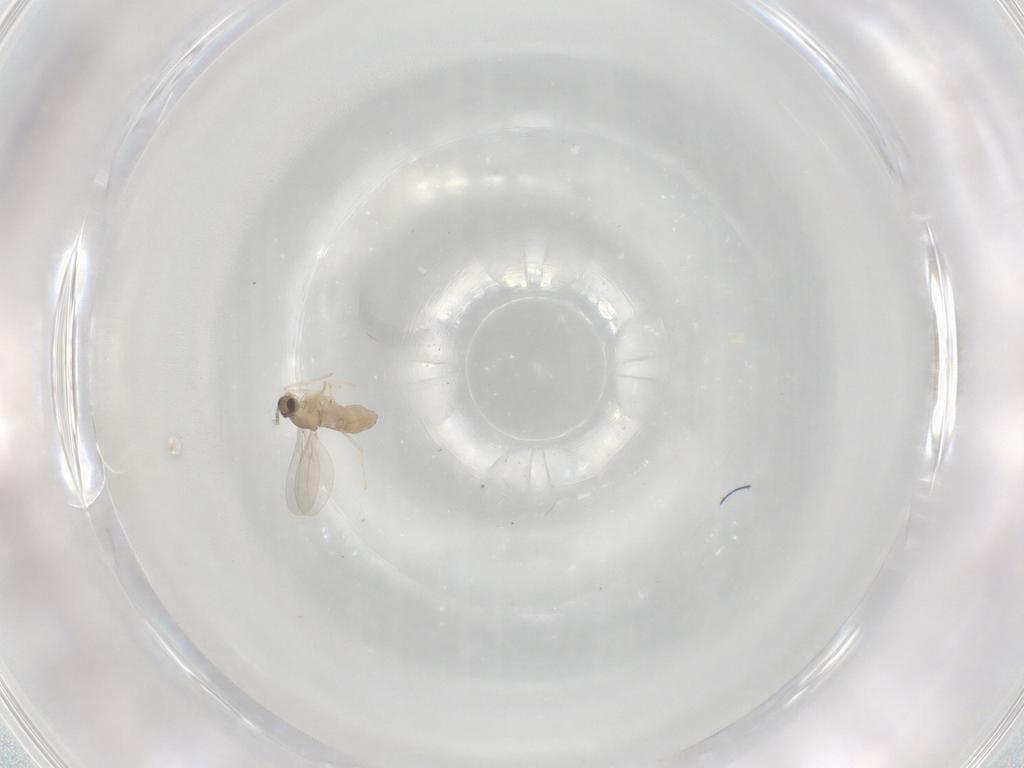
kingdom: Animalia
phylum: Arthropoda
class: Insecta
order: Diptera
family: Cecidomyiidae
